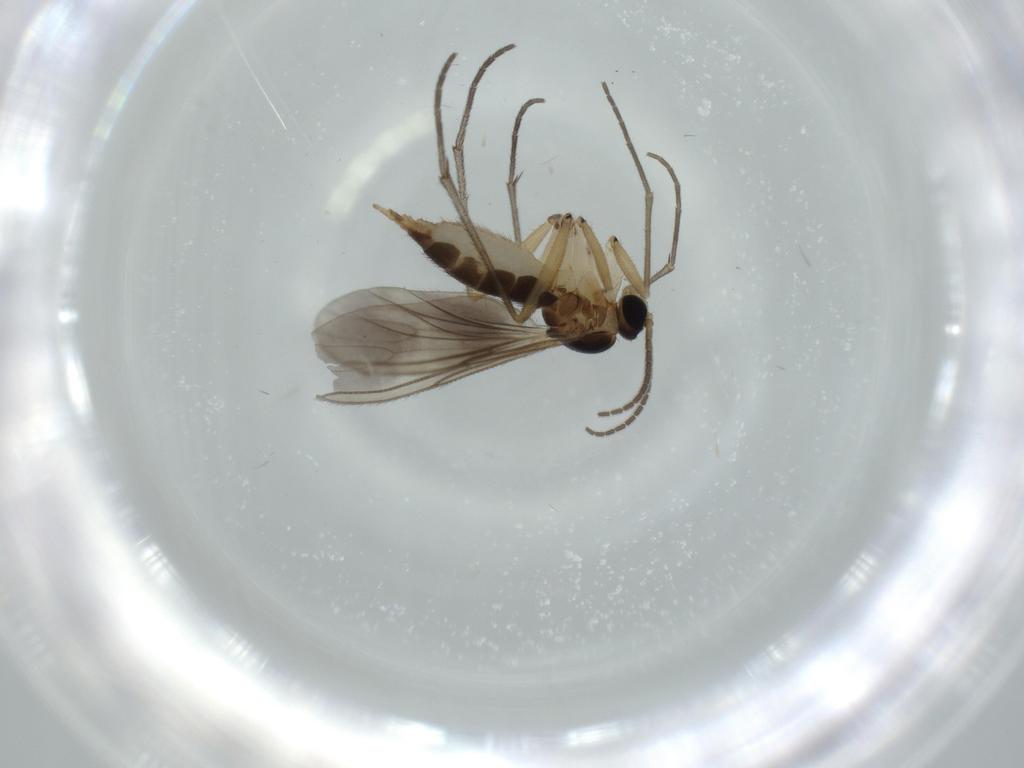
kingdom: Animalia
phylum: Arthropoda
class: Insecta
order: Diptera
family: Sciaridae
